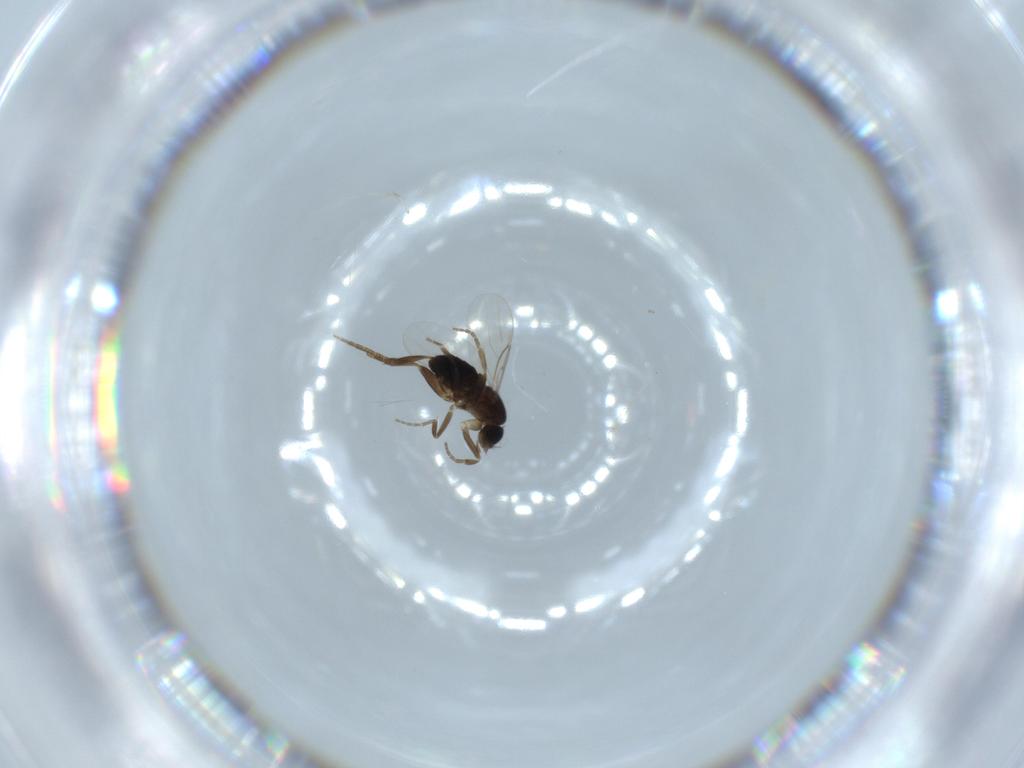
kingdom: Animalia
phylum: Arthropoda
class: Insecta
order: Diptera
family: Phoridae
